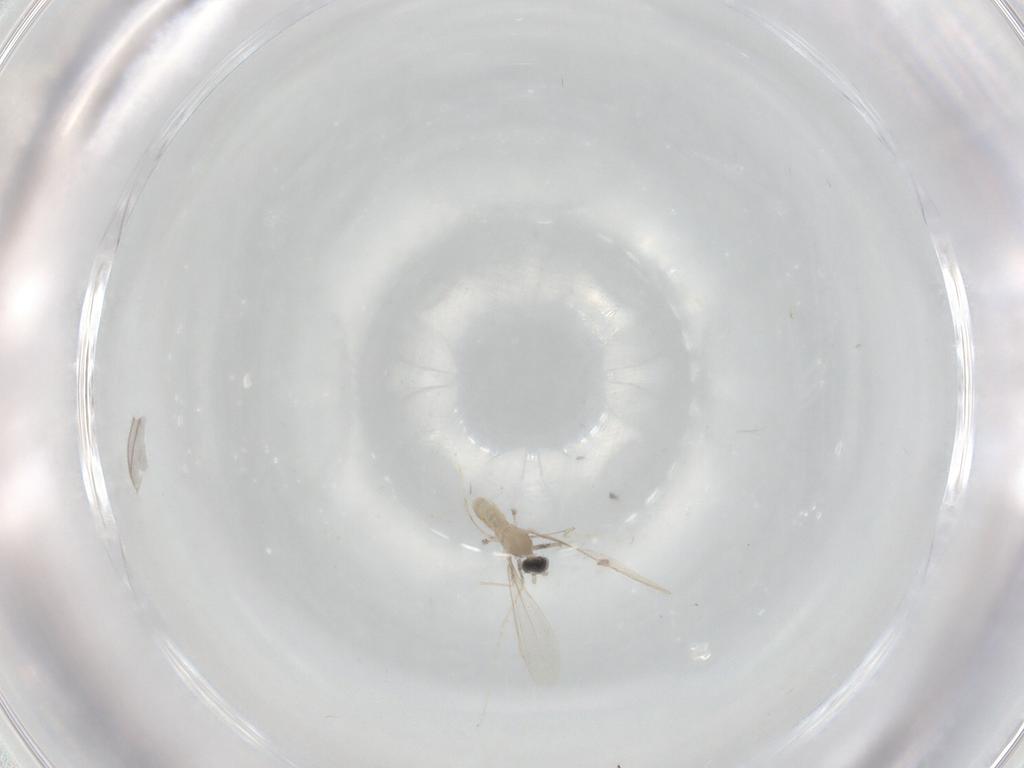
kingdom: Animalia
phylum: Arthropoda
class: Insecta
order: Diptera
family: Cecidomyiidae
